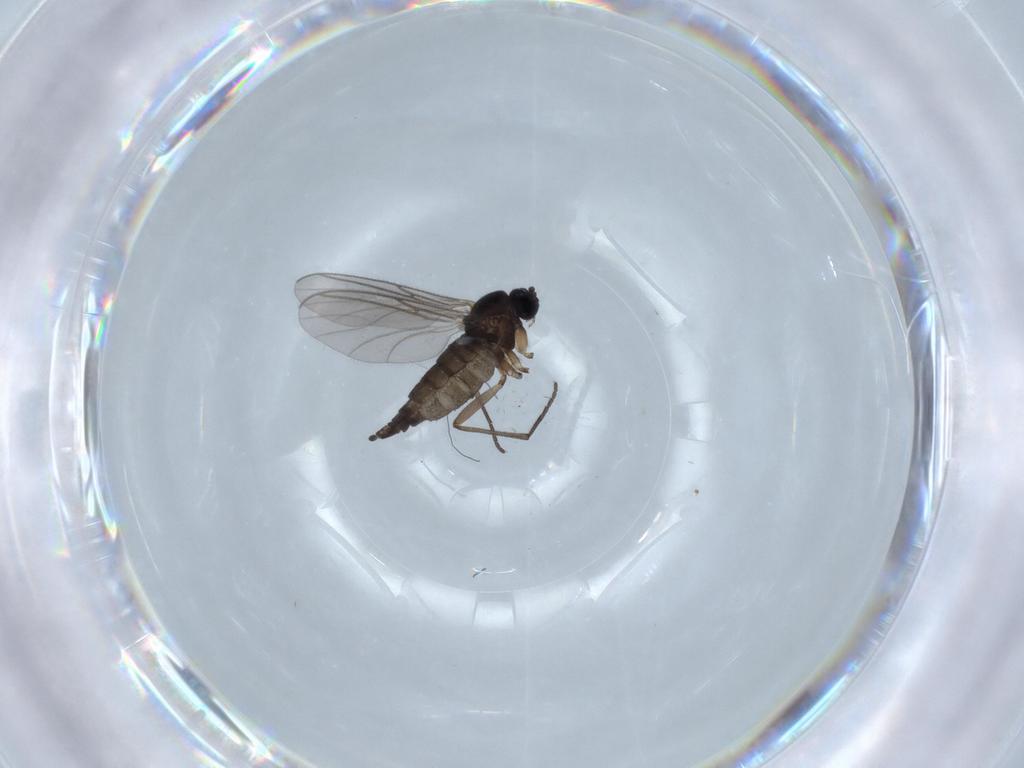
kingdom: Animalia
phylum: Arthropoda
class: Insecta
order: Diptera
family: Sciaridae
